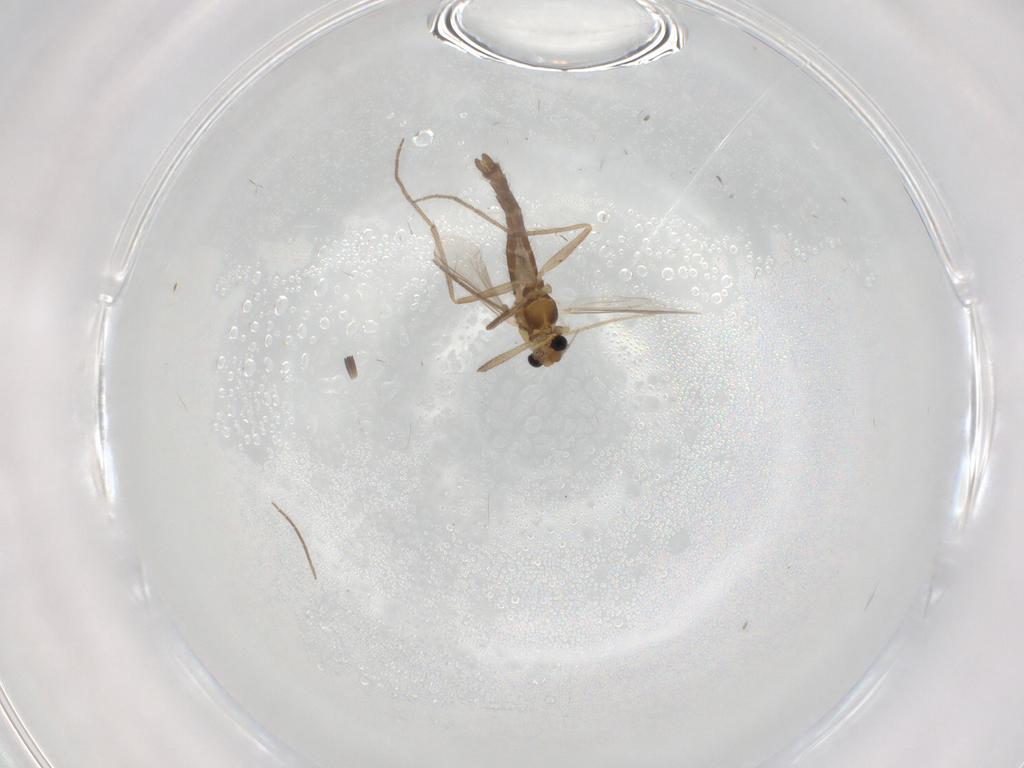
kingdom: Animalia
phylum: Arthropoda
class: Insecta
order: Diptera
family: Chironomidae
